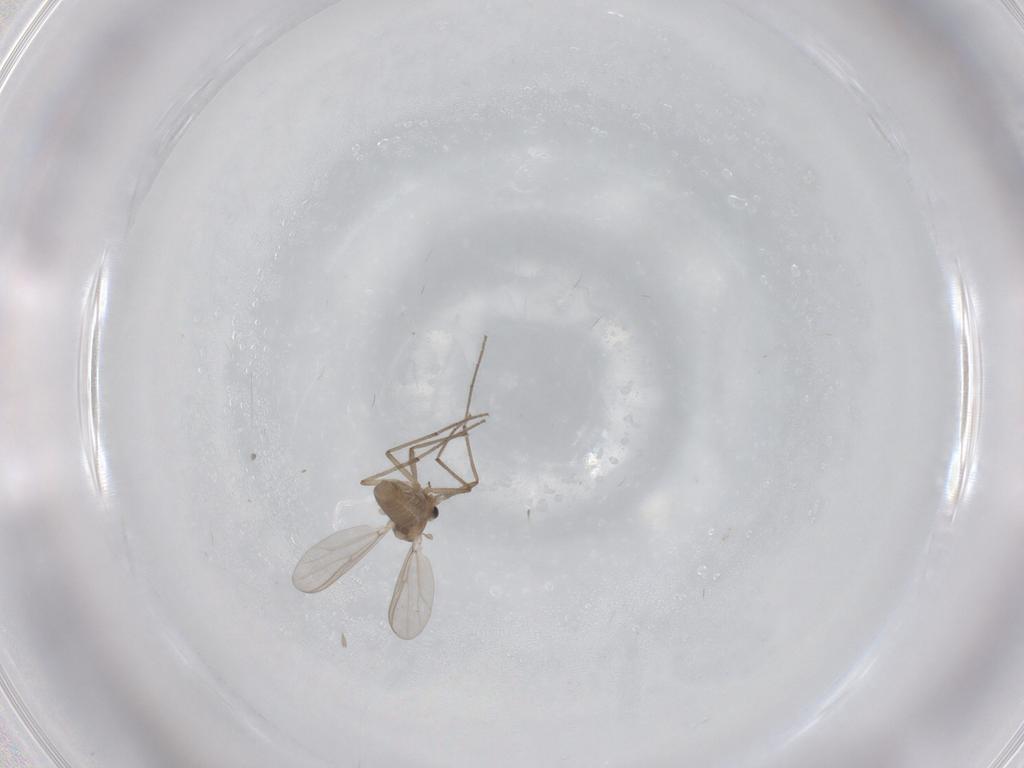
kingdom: Animalia
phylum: Arthropoda
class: Insecta
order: Diptera
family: Chironomidae
